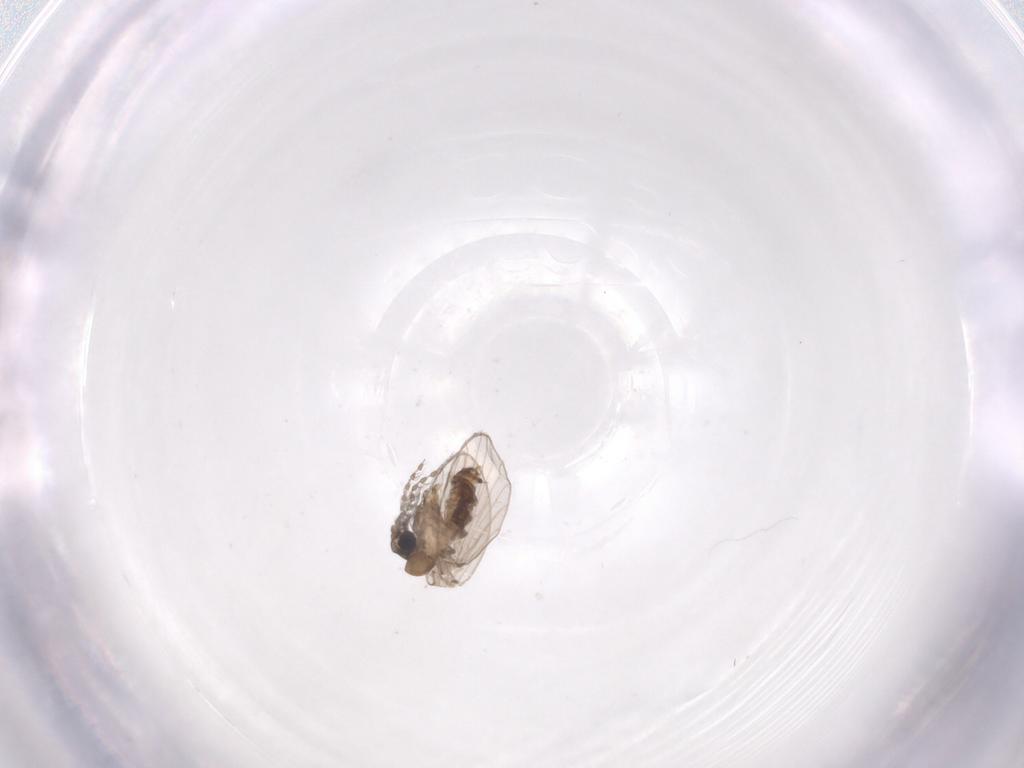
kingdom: Animalia
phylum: Arthropoda
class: Insecta
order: Diptera
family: Psychodidae
